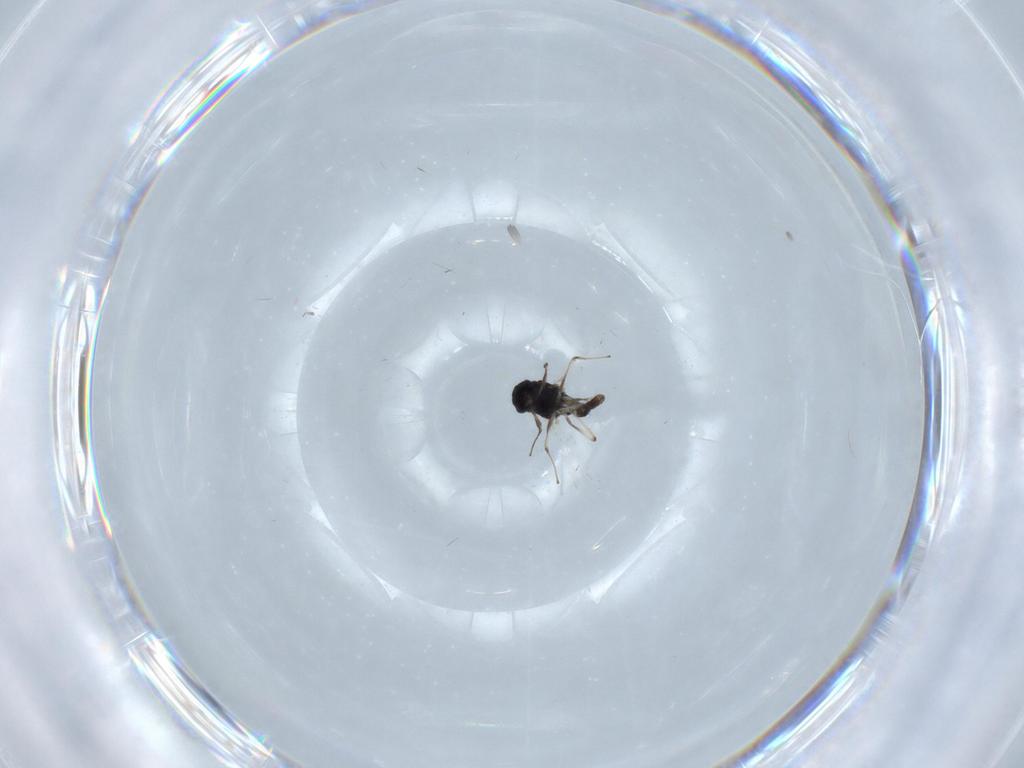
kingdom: Animalia
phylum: Arthropoda
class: Insecta
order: Diptera
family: Chironomidae
